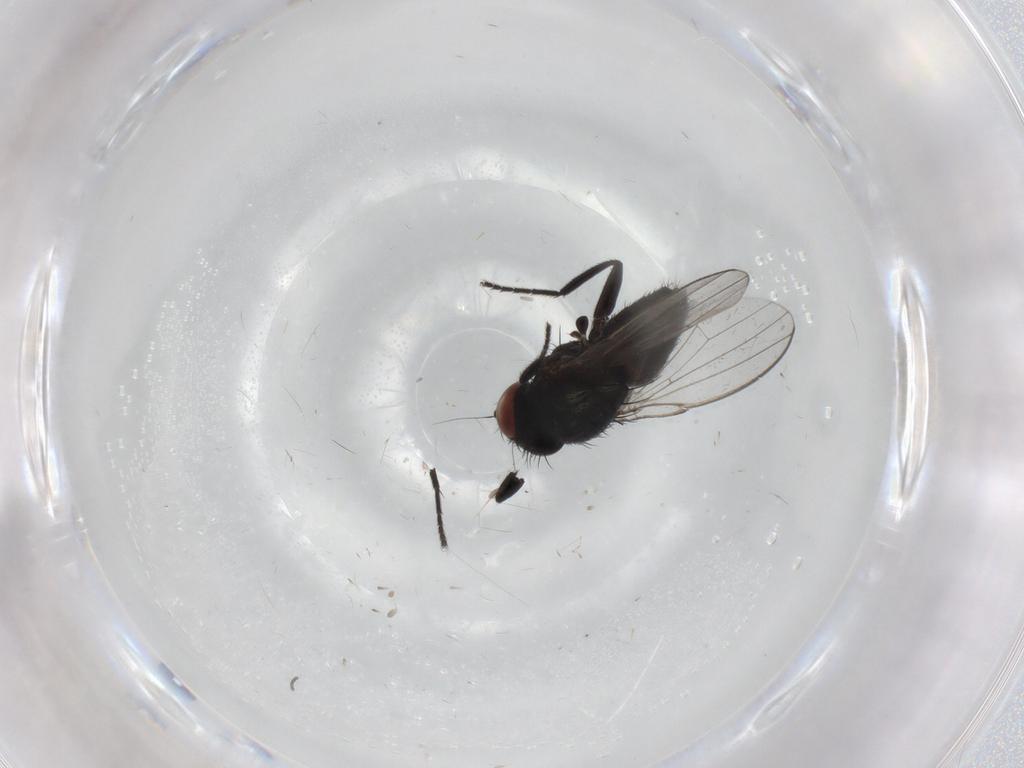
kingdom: Animalia
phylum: Arthropoda
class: Insecta
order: Diptera
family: Milichiidae
